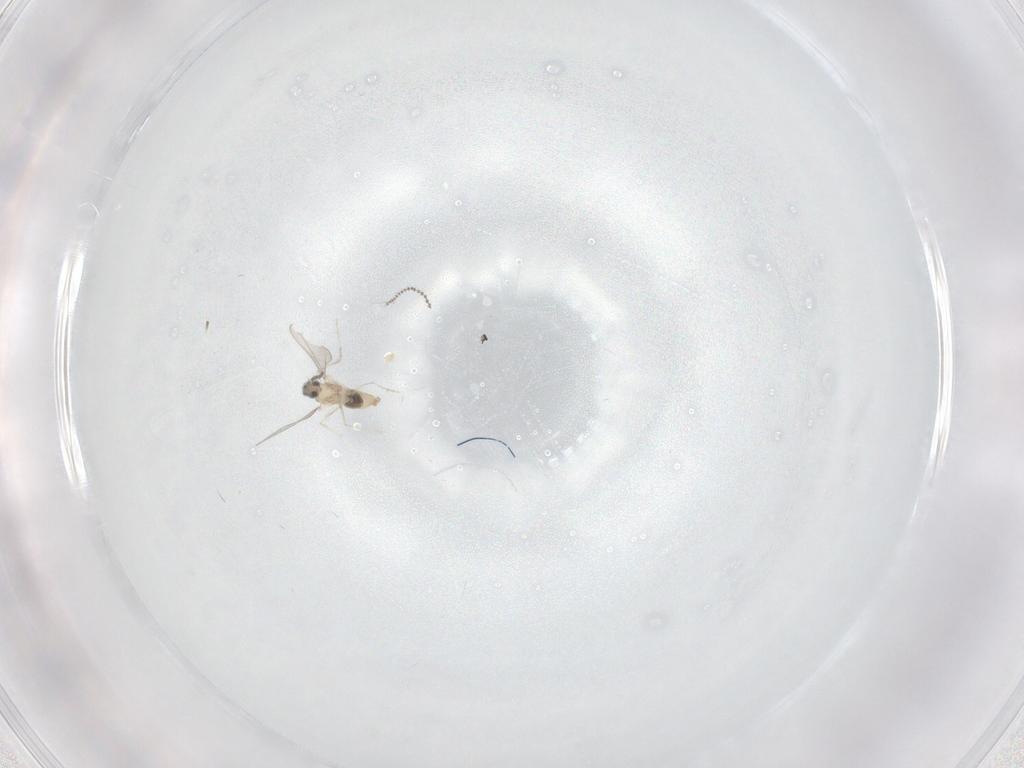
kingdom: Animalia
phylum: Arthropoda
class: Insecta
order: Diptera
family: Cecidomyiidae
